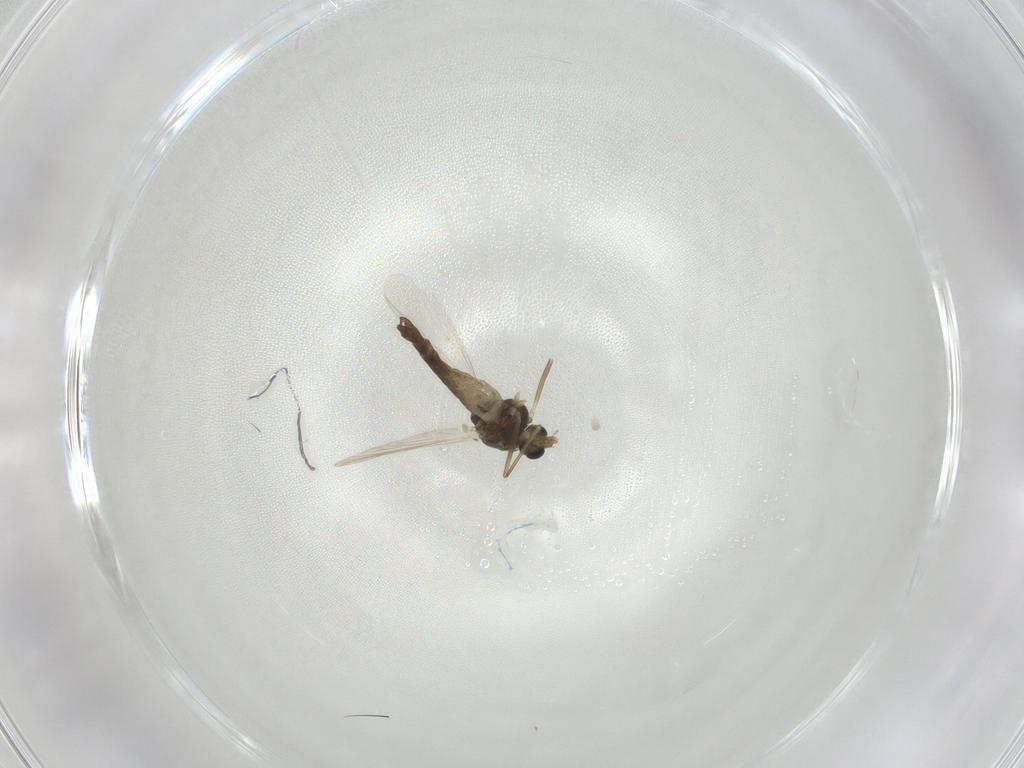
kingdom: Animalia
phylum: Arthropoda
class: Insecta
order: Diptera
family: Chironomidae
